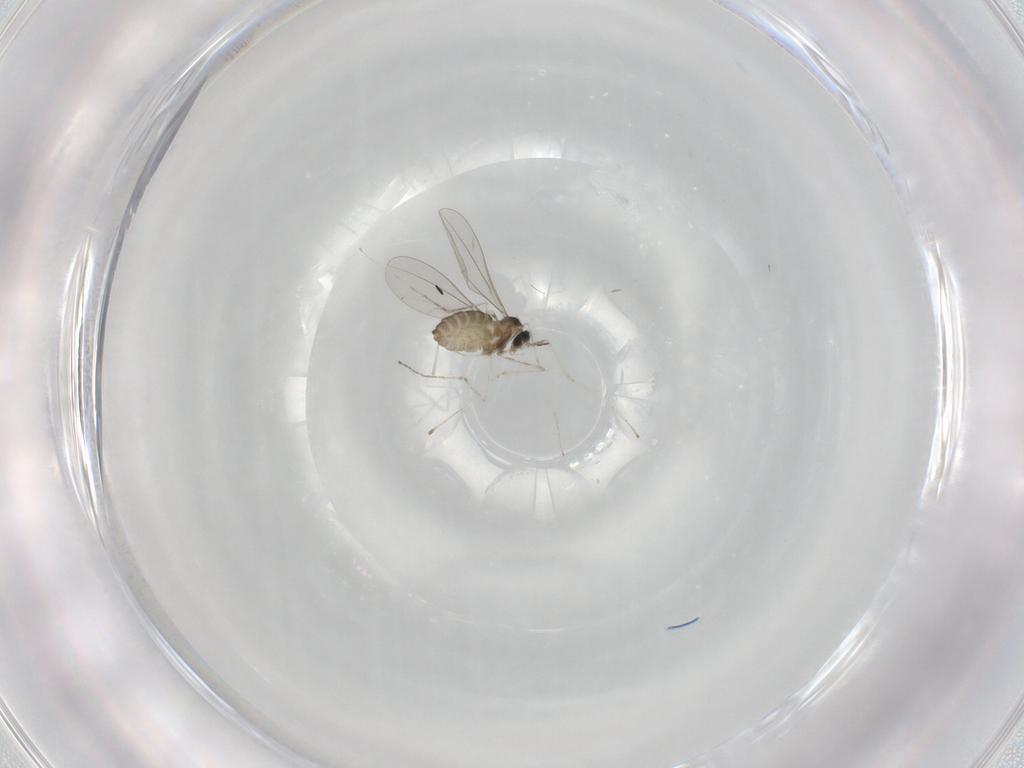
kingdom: Animalia
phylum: Arthropoda
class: Insecta
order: Diptera
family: Cecidomyiidae
